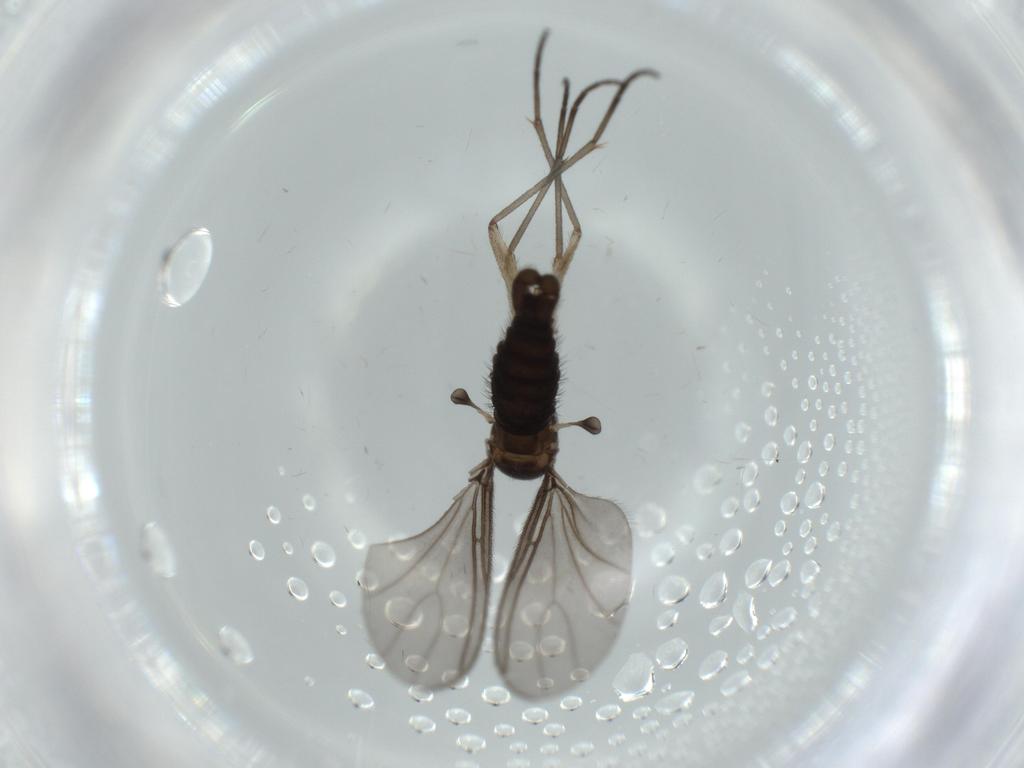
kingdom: Animalia
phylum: Arthropoda
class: Insecta
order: Diptera
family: Sciaridae
